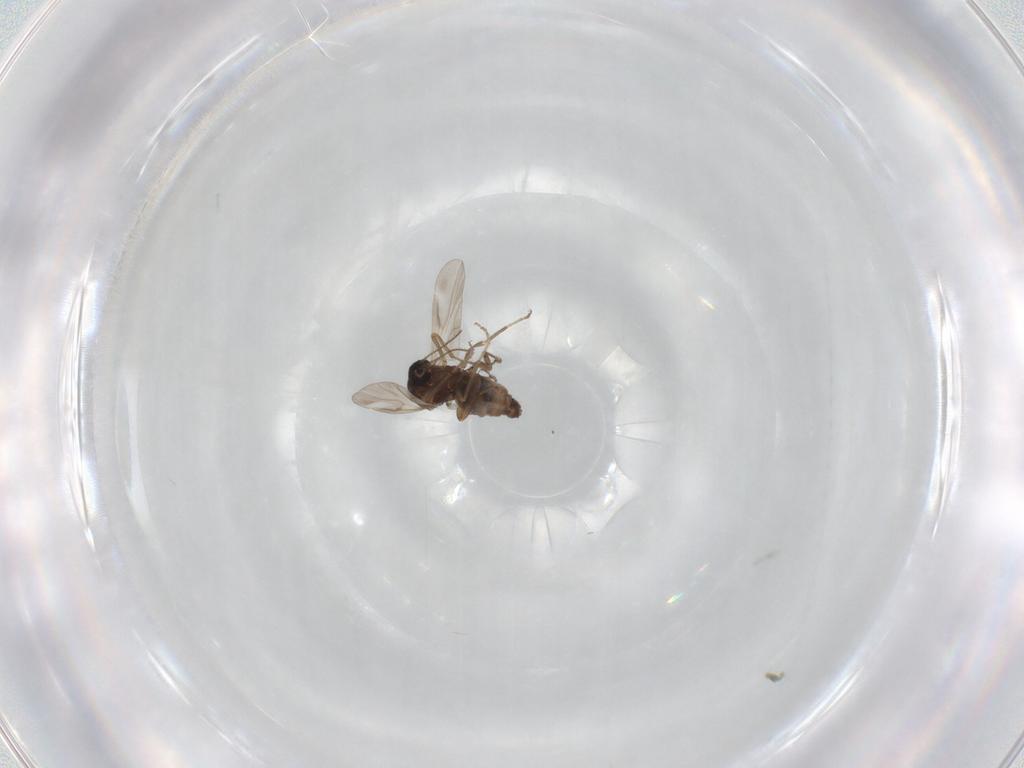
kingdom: Animalia
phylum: Arthropoda
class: Insecta
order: Diptera
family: Ceratopogonidae
